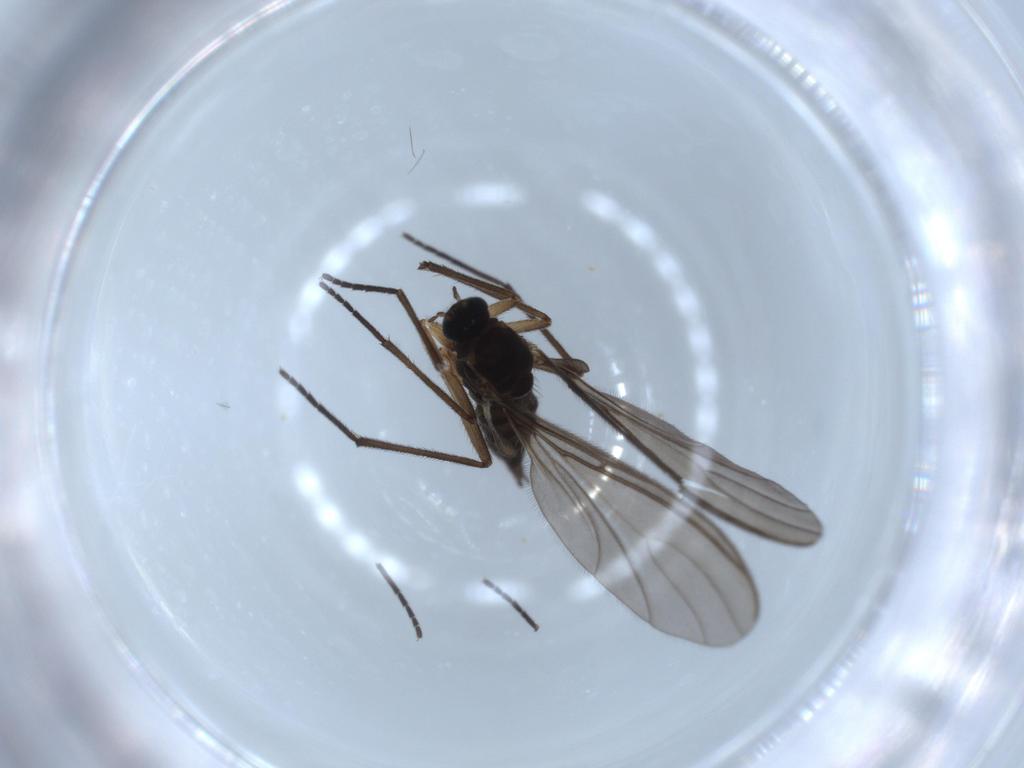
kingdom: Animalia
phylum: Arthropoda
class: Insecta
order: Diptera
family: Sciaridae
